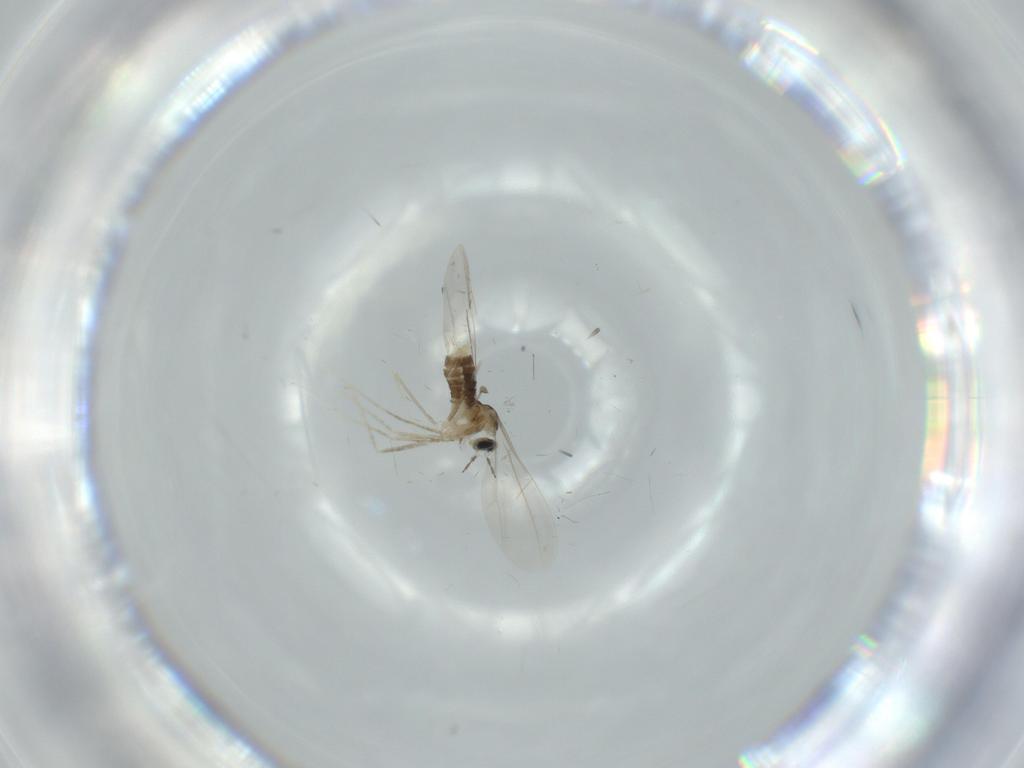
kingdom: Animalia
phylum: Arthropoda
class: Insecta
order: Diptera
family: Cecidomyiidae
